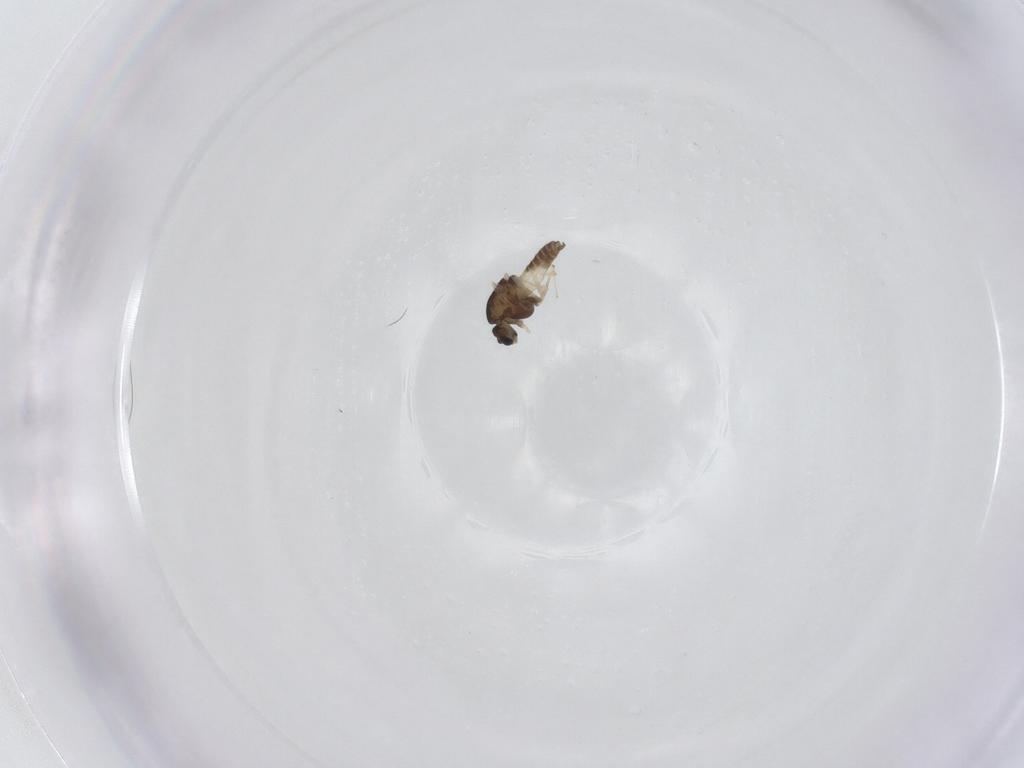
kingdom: Animalia
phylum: Arthropoda
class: Insecta
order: Diptera
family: Chironomidae
